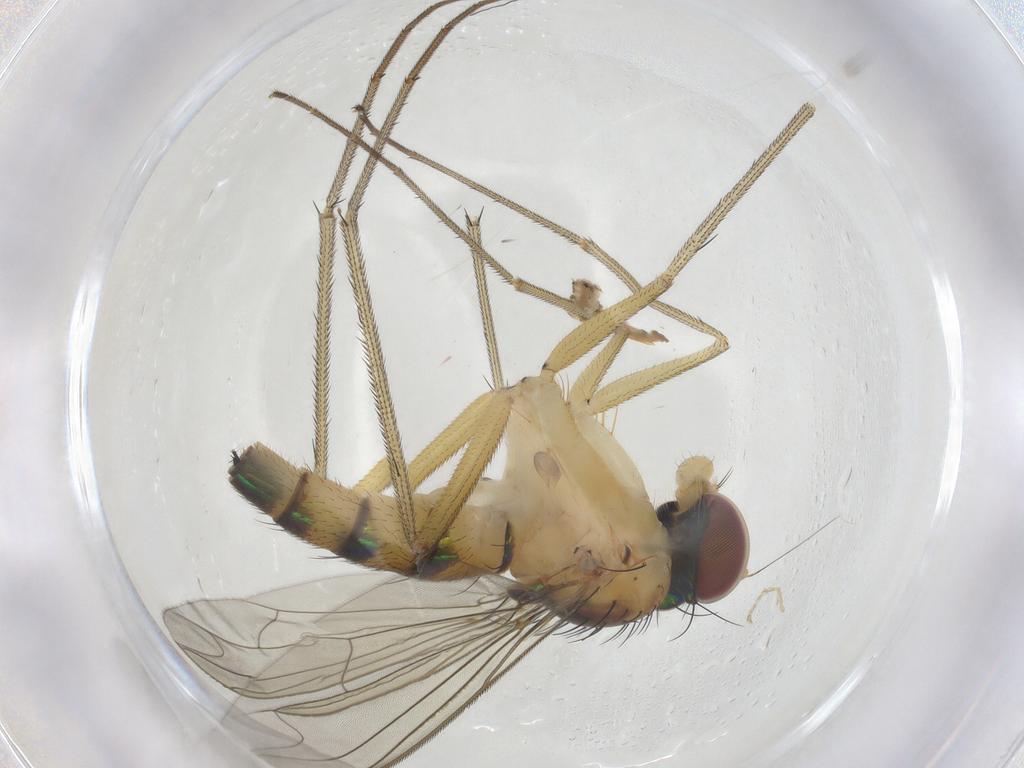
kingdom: Animalia
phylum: Arthropoda
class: Insecta
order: Diptera
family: Dolichopodidae
